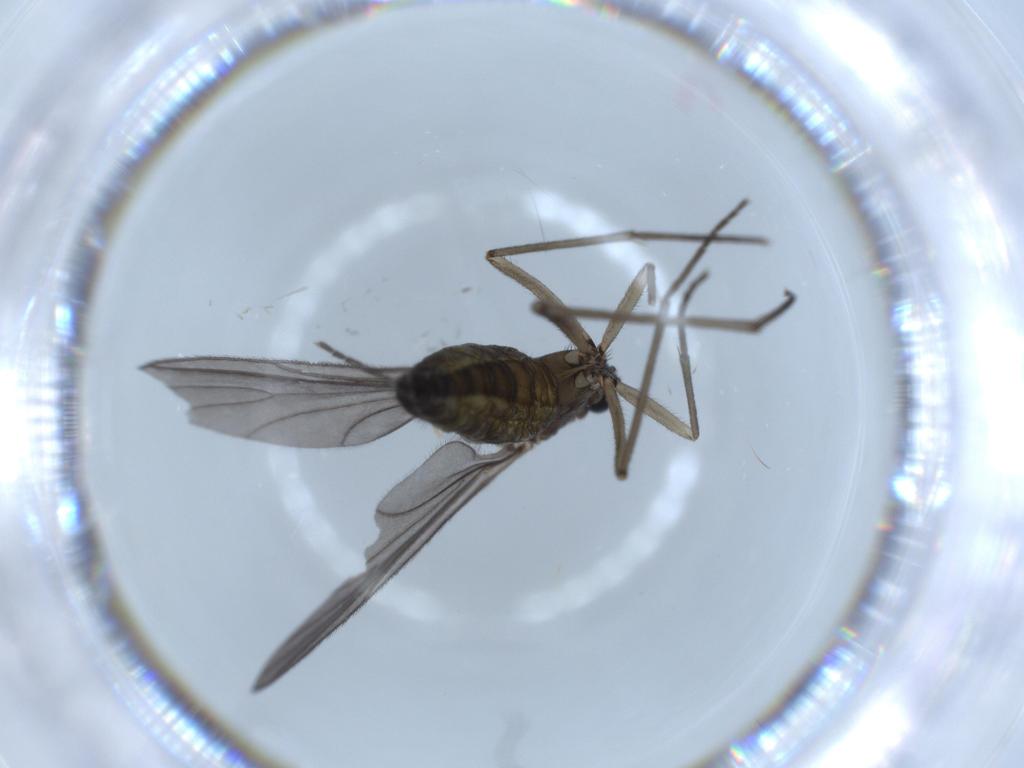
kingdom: Animalia
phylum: Arthropoda
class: Insecta
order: Diptera
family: Sciaridae
